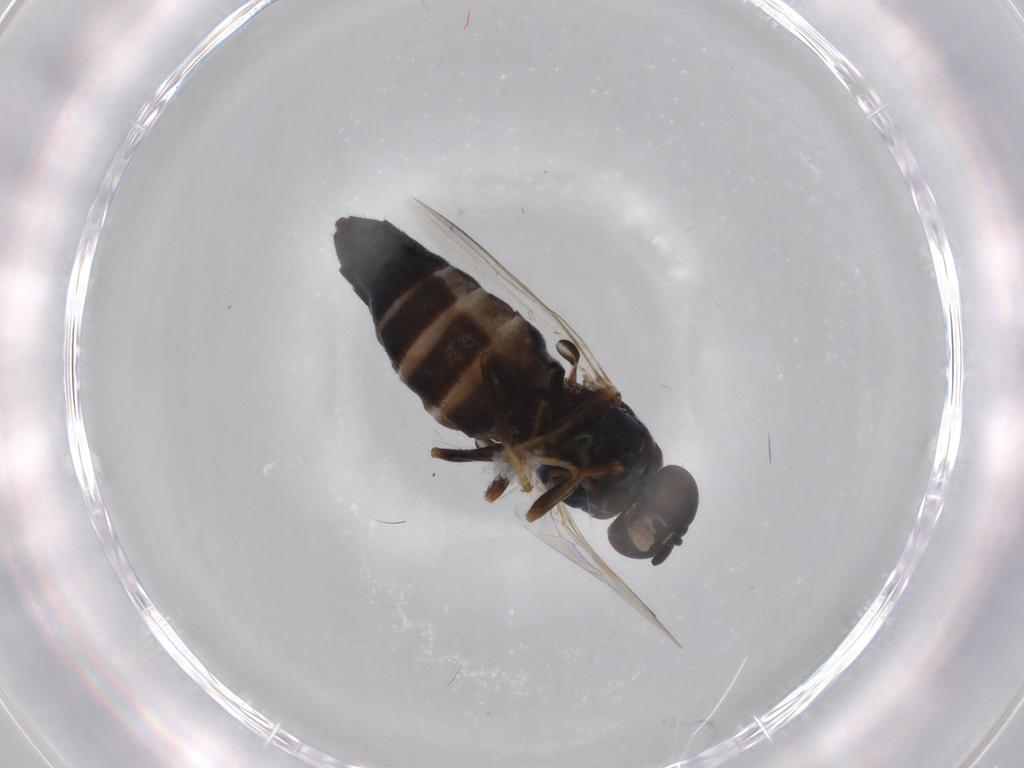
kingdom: Animalia
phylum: Arthropoda
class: Insecta
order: Diptera
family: Scenopinidae
